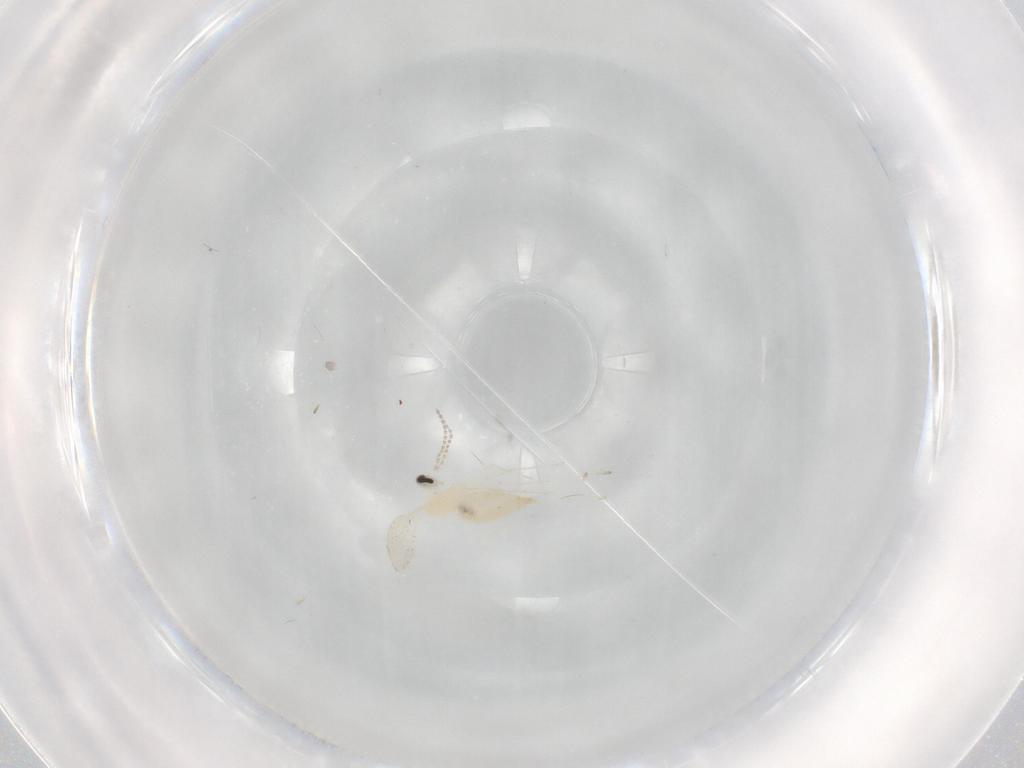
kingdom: Animalia
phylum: Arthropoda
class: Insecta
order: Diptera
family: Cecidomyiidae
